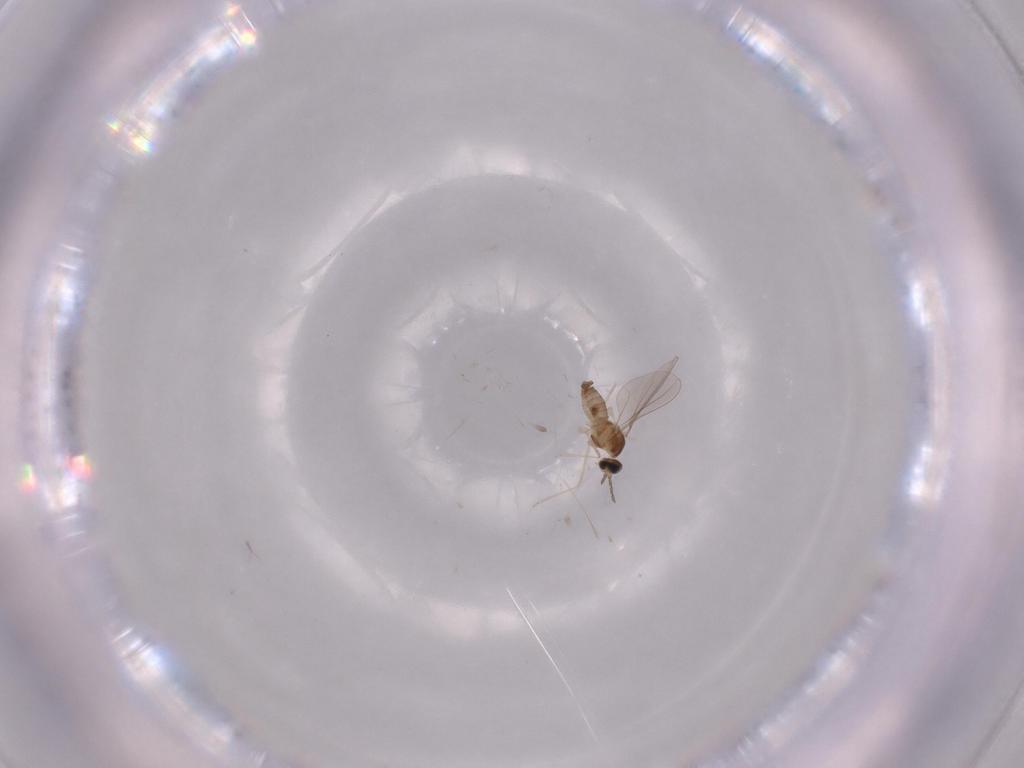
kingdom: Animalia
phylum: Arthropoda
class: Insecta
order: Diptera
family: Cecidomyiidae
